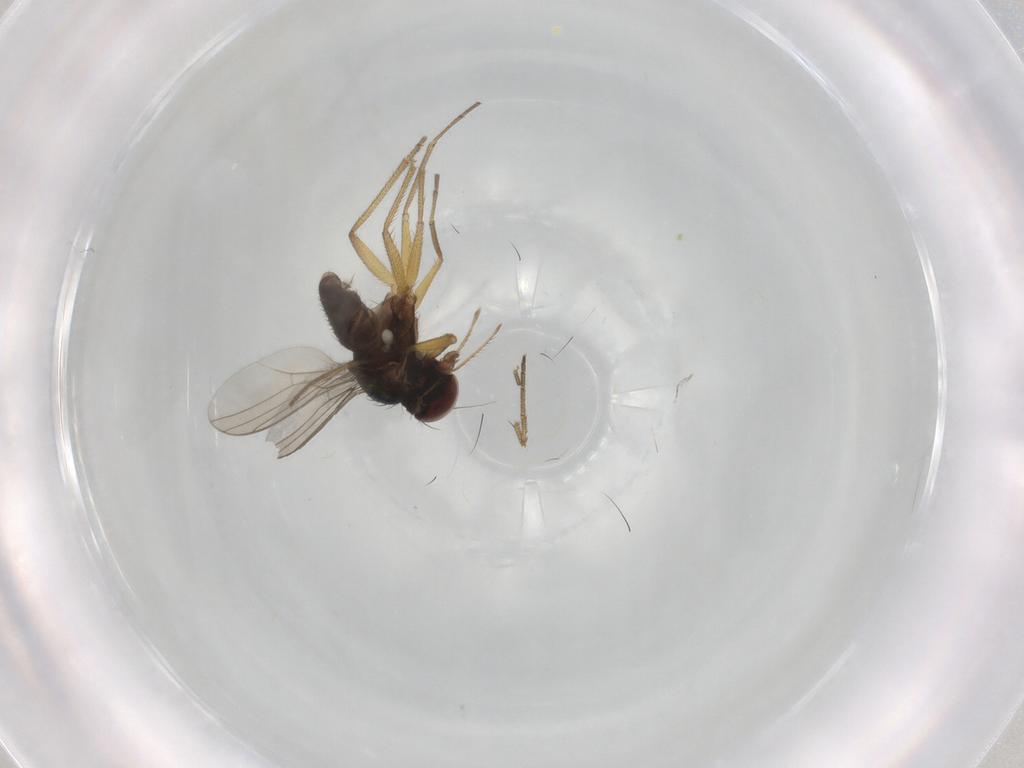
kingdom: Animalia
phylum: Arthropoda
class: Insecta
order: Diptera
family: Dolichopodidae
